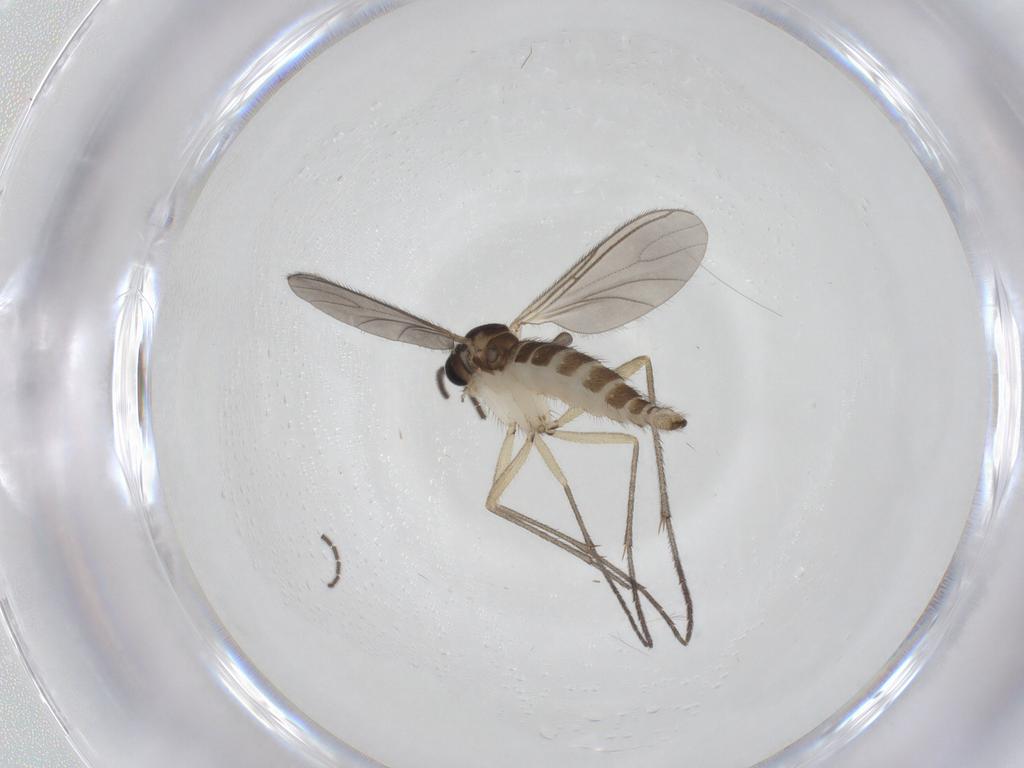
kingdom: Animalia
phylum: Arthropoda
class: Insecta
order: Diptera
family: Sciaridae
